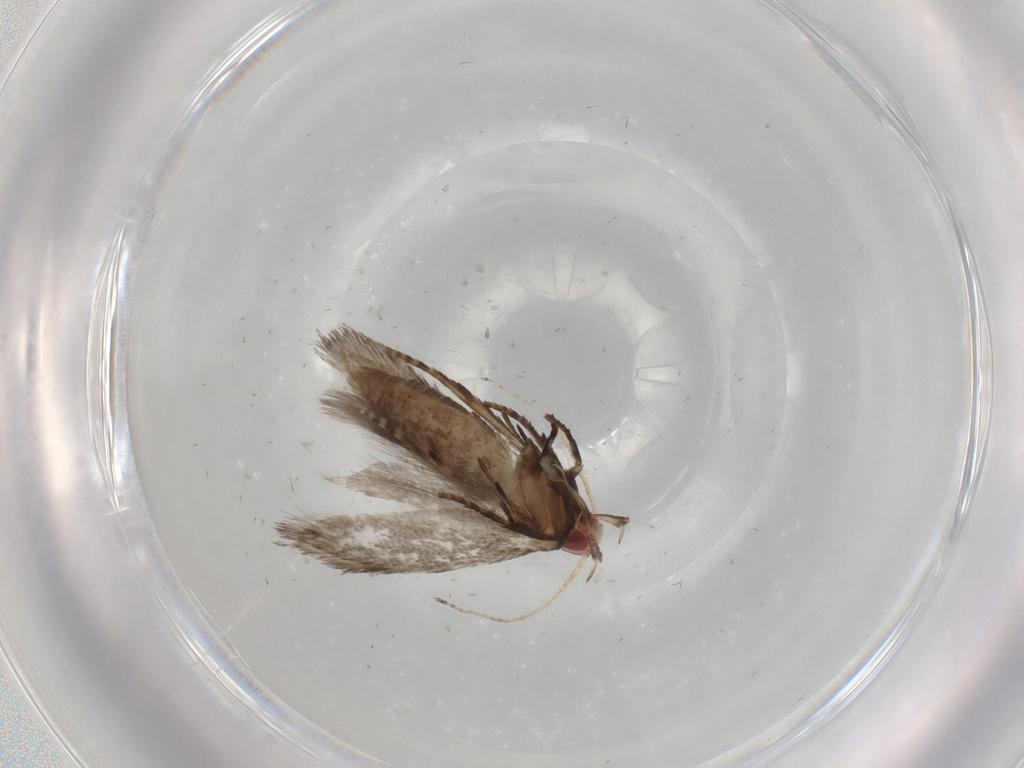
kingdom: Animalia
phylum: Arthropoda
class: Insecta
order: Lepidoptera
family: Gelechiidae
